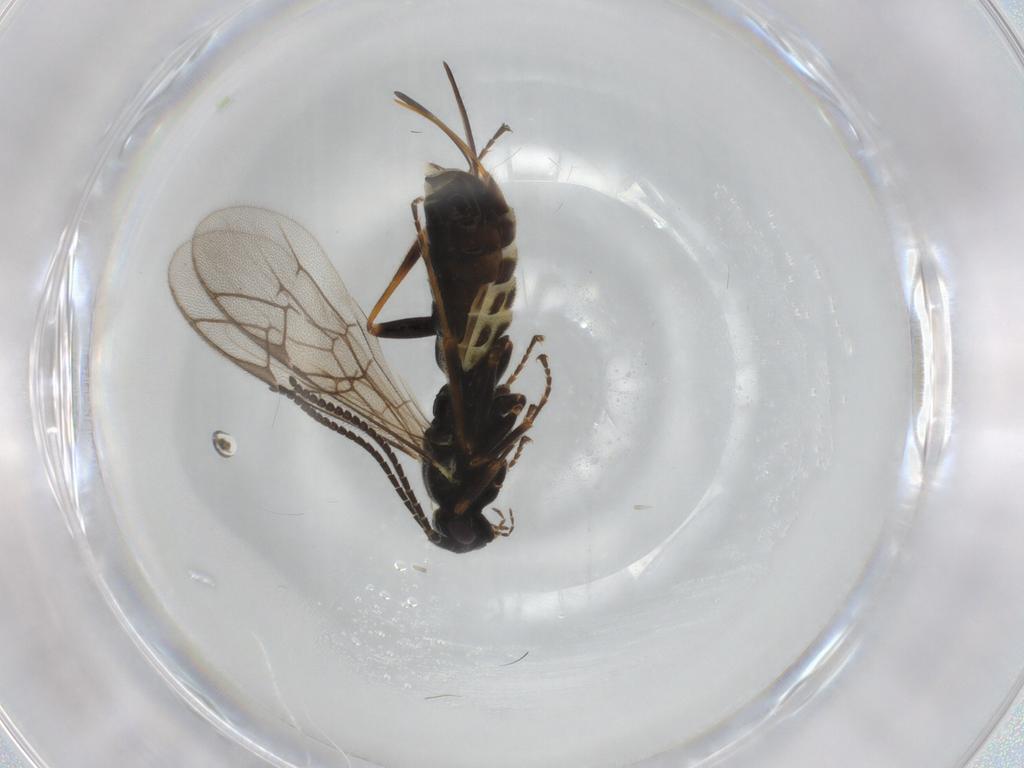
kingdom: Animalia
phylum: Arthropoda
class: Insecta
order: Hymenoptera
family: Ichneumonidae
